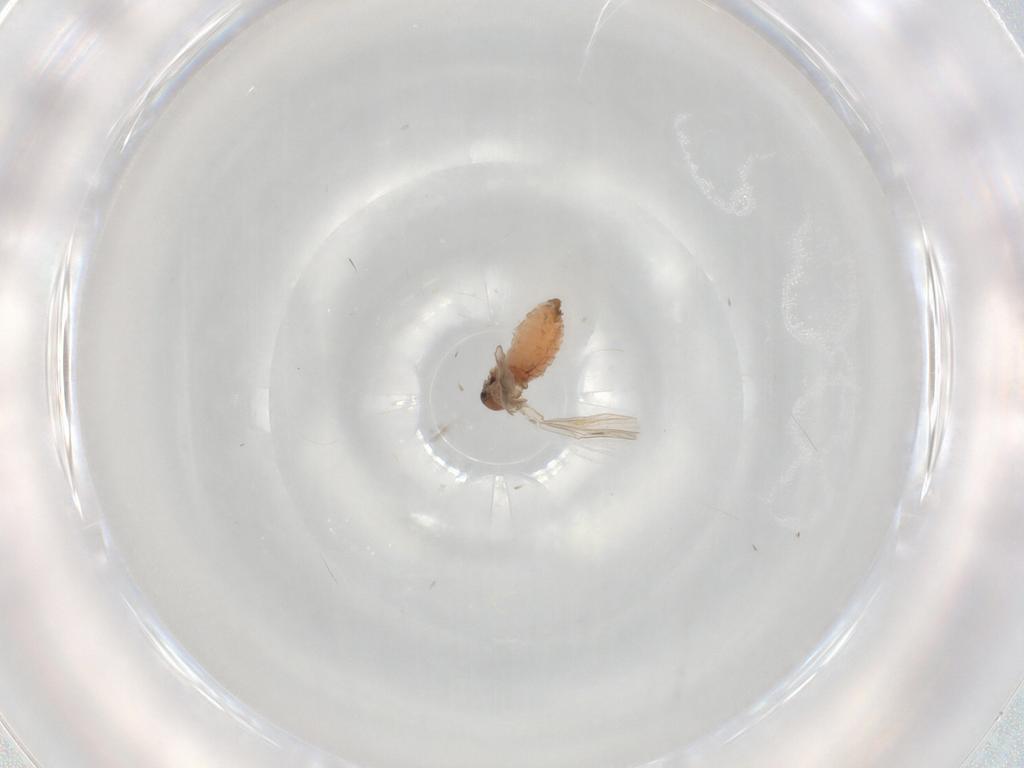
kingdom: Animalia
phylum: Arthropoda
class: Insecta
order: Diptera
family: Psychodidae
